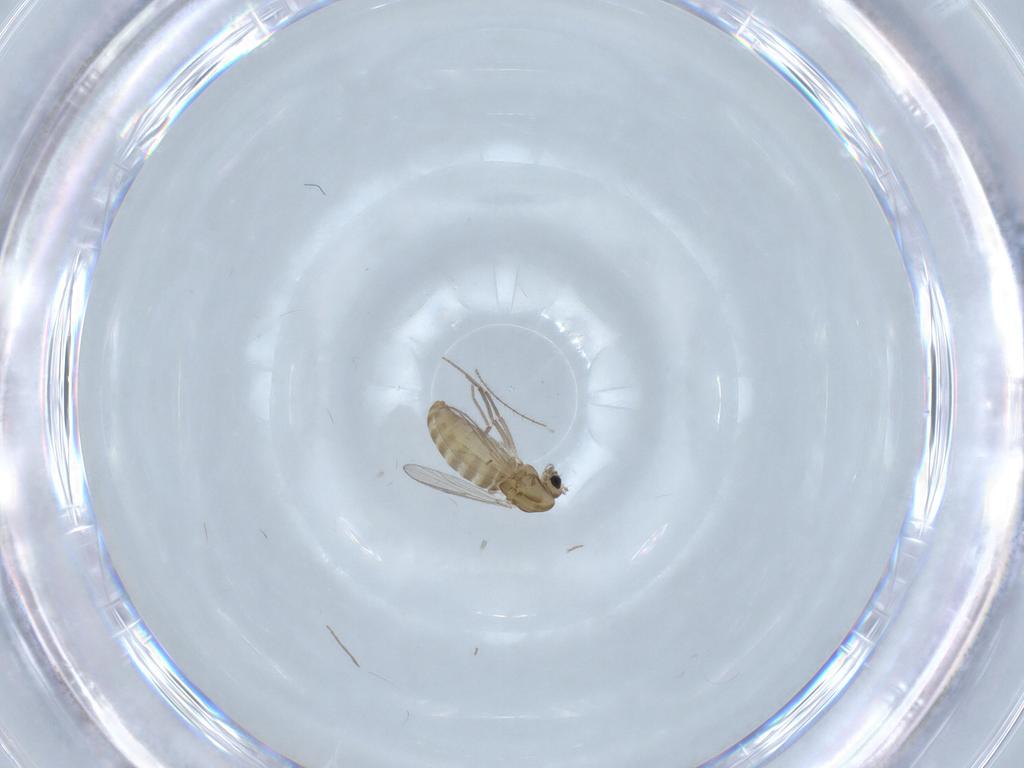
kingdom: Animalia
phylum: Arthropoda
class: Insecta
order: Diptera
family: Chironomidae
